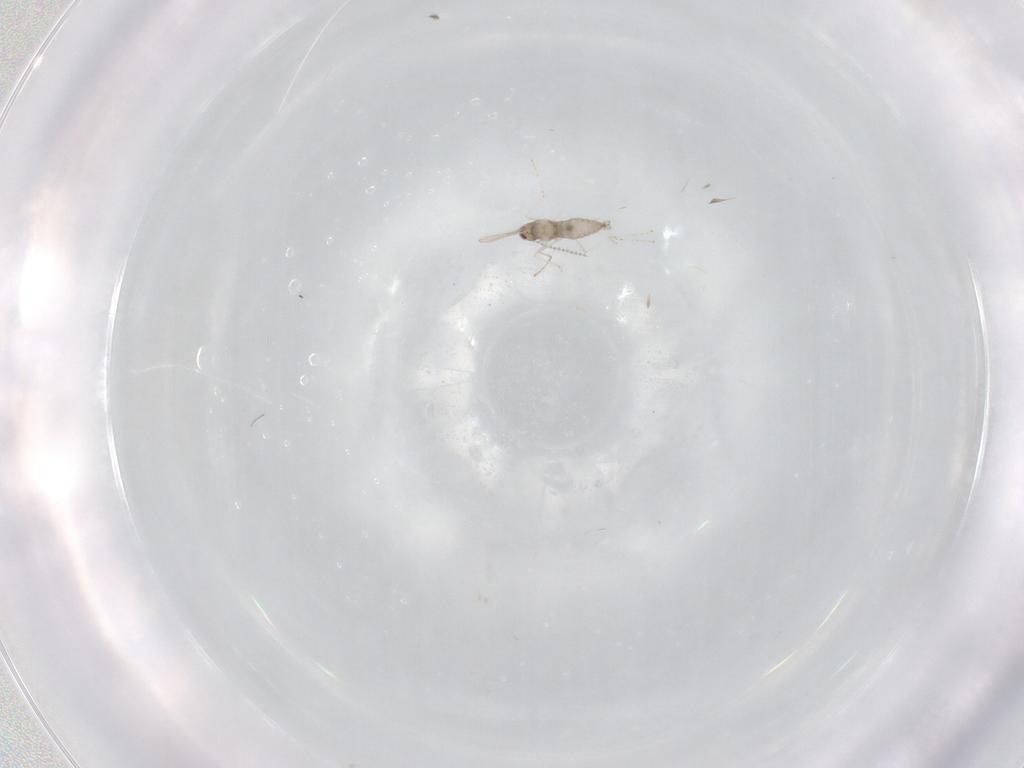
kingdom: Animalia
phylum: Arthropoda
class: Insecta
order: Diptera
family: Cecidomyiidae
